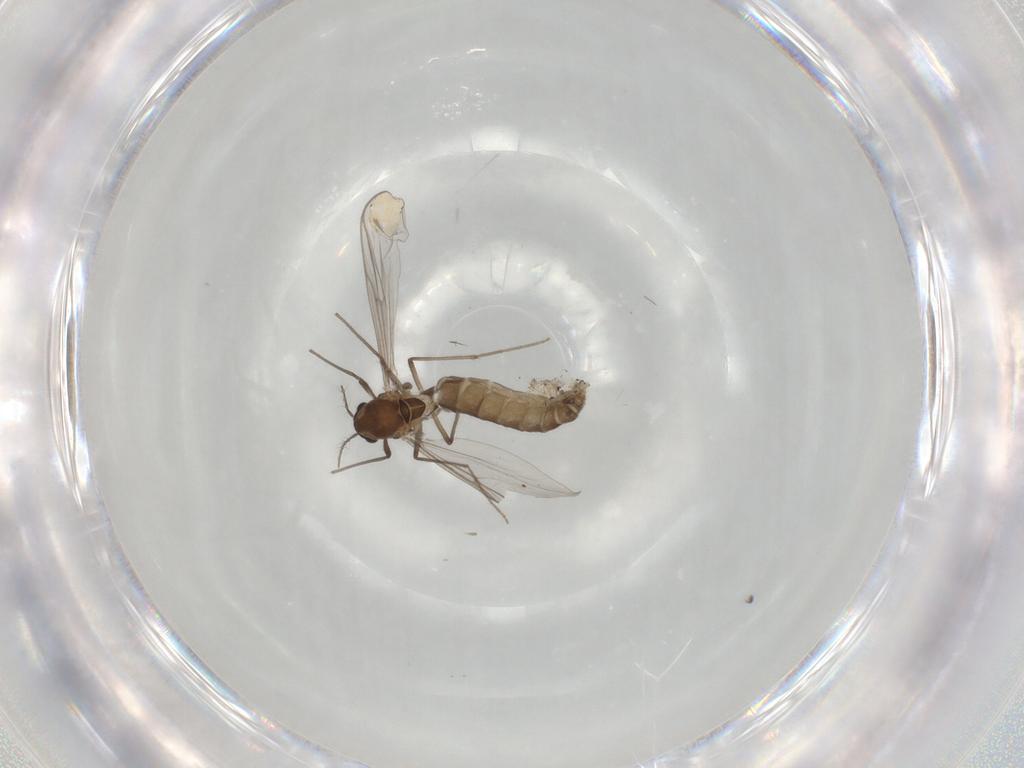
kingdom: Animalia
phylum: Arthropoda
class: Insecta
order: Diptera
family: Chironomidae
